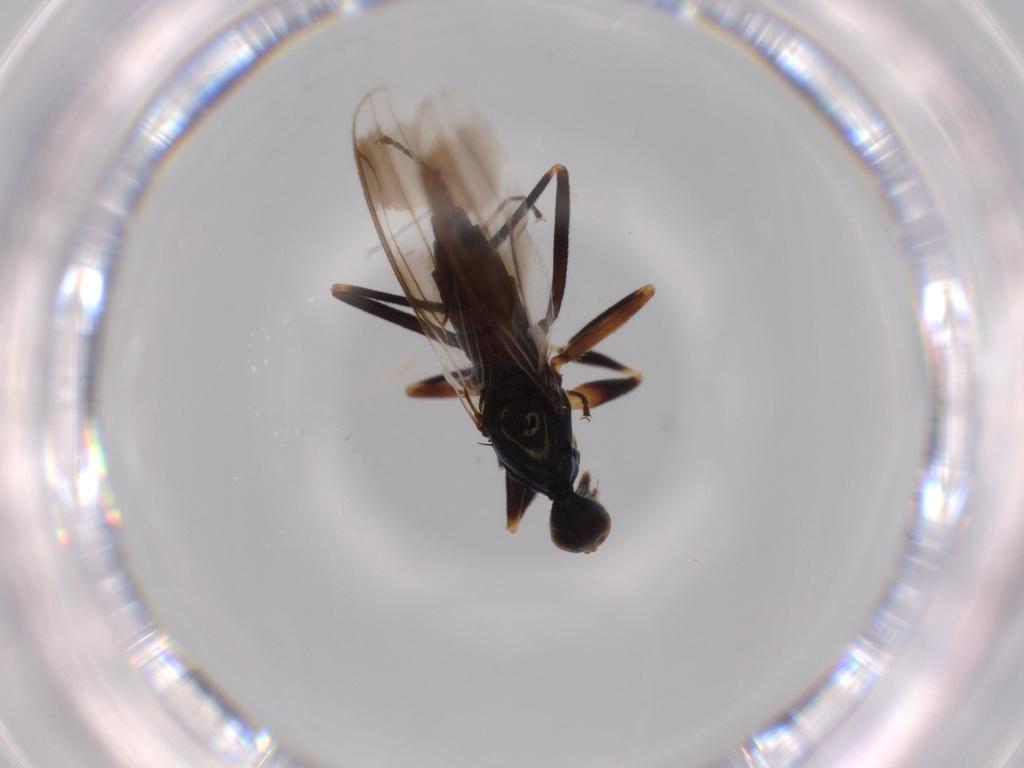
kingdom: Animalia
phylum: Arthropoda
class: Insecta
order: Diptera
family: Hybotidae
